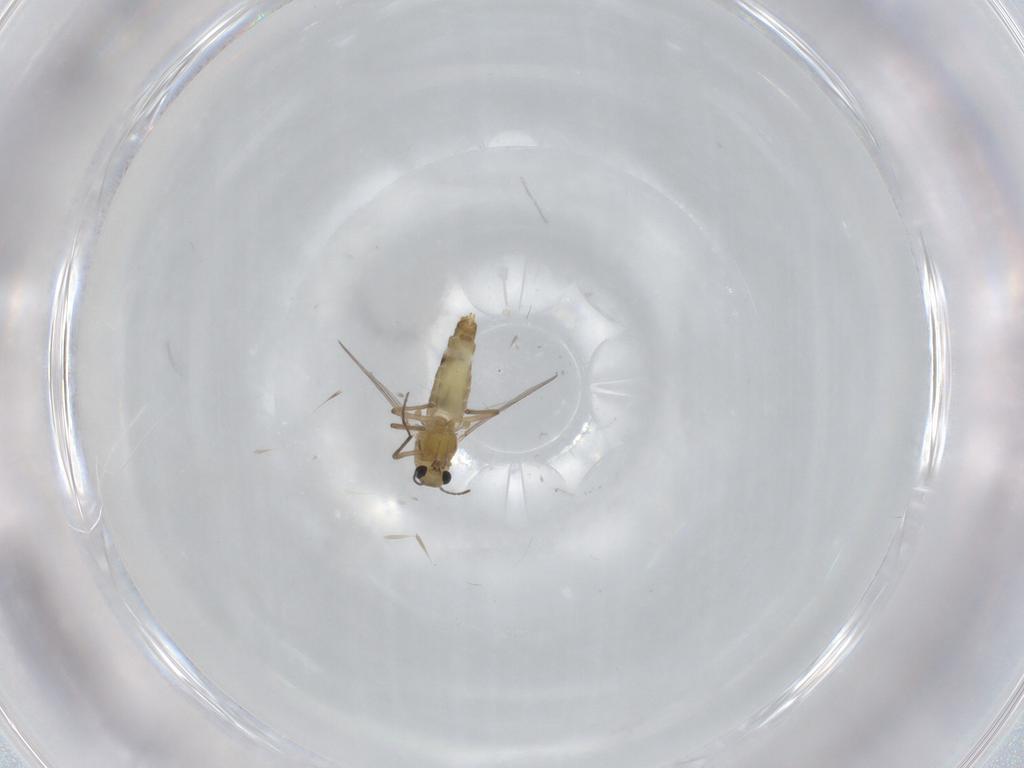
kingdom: Animalia
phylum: Arthropoda
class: Insecta
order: Diptera
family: Chironomidae
